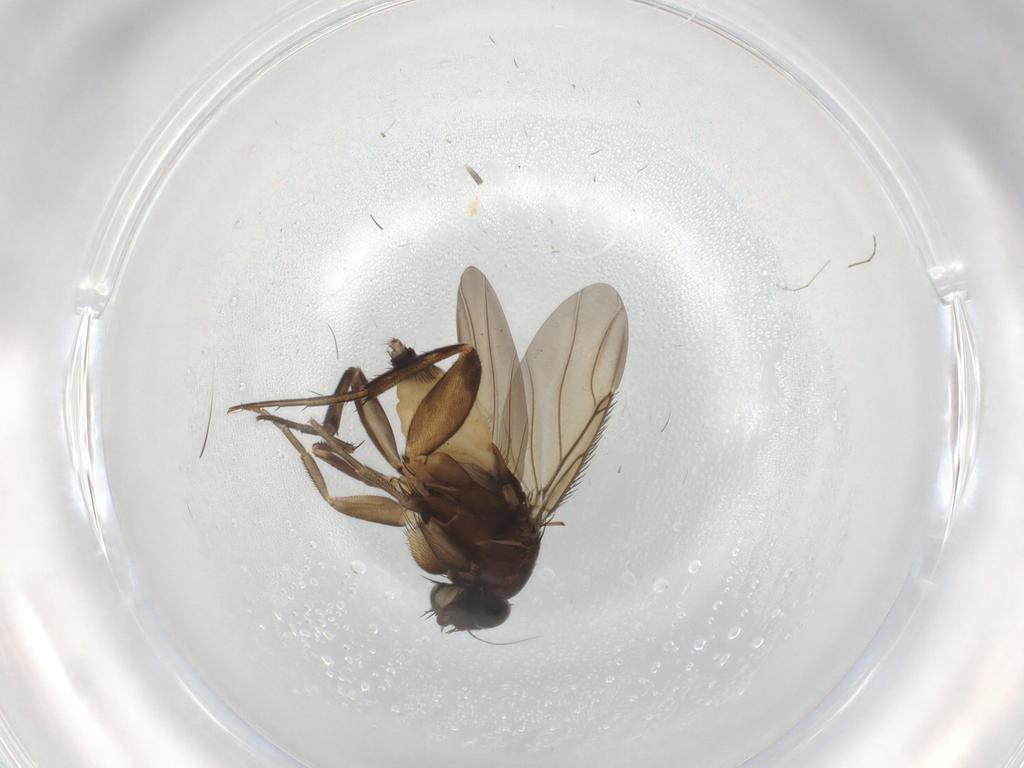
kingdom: Animalia
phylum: Arthropoda
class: Insecta
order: Diptera
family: Phoridae
